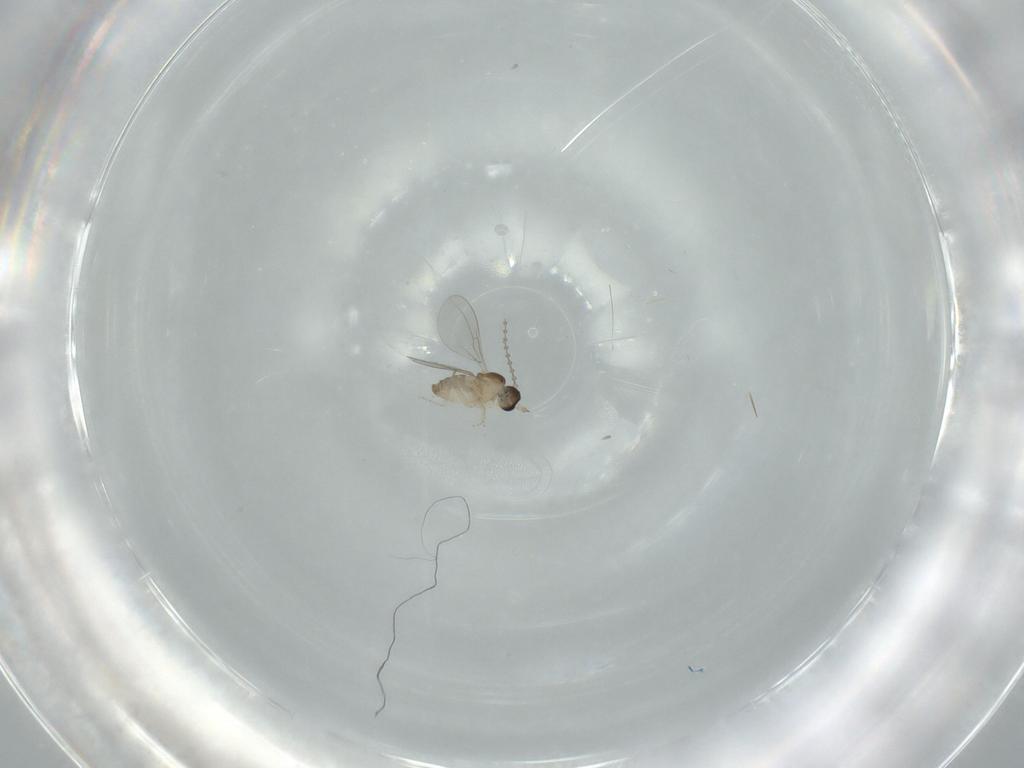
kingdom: Animalia
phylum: Arthropoda
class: Insecta
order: Diptera
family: Cecidomyiidae
